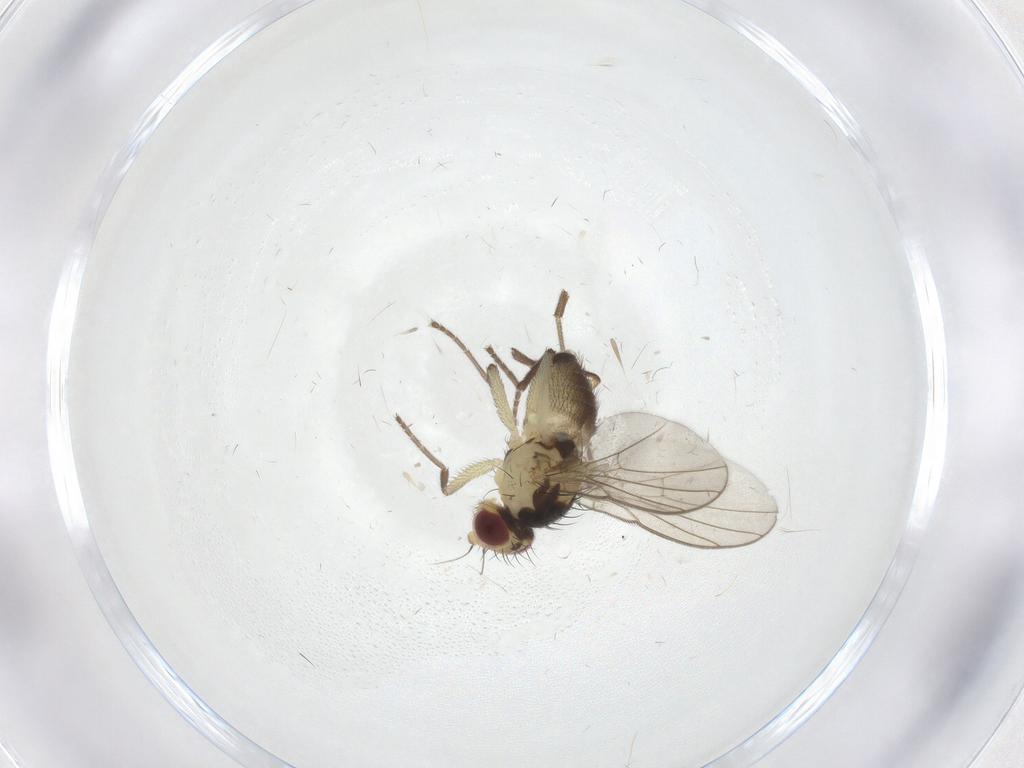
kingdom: Animalia
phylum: Arthropoda
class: Insecta
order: Diptera
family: Agromyzidae
